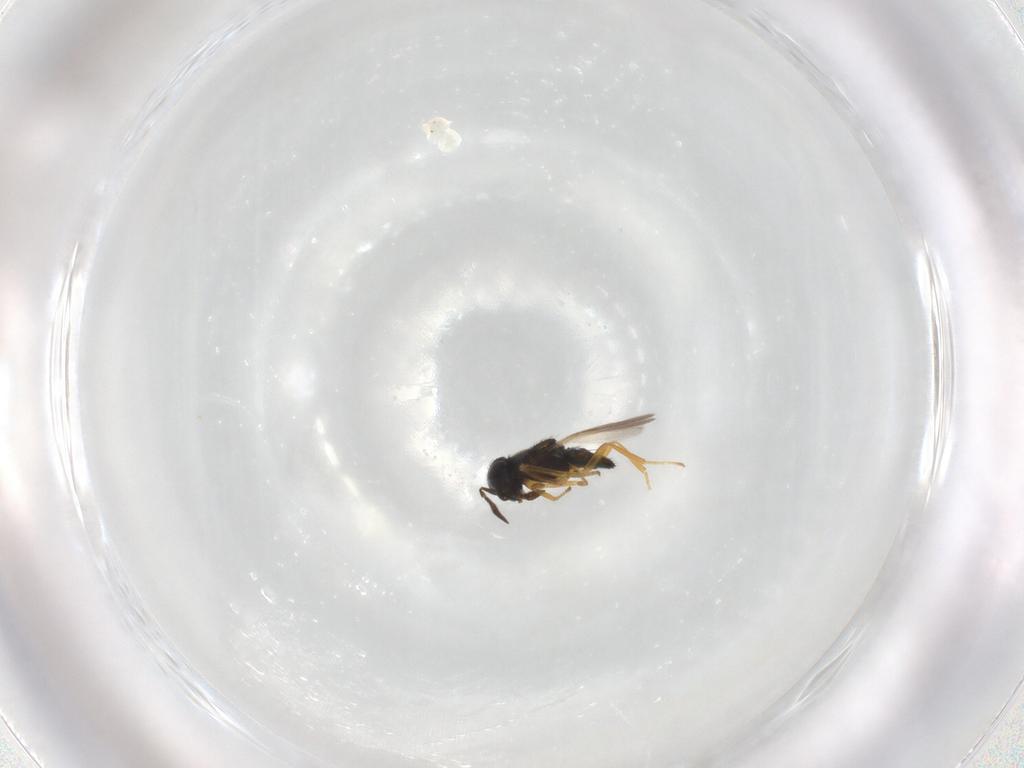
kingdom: Animalia
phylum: Arthropoda
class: Insecta
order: Hymenoptera
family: Encyrtidae
